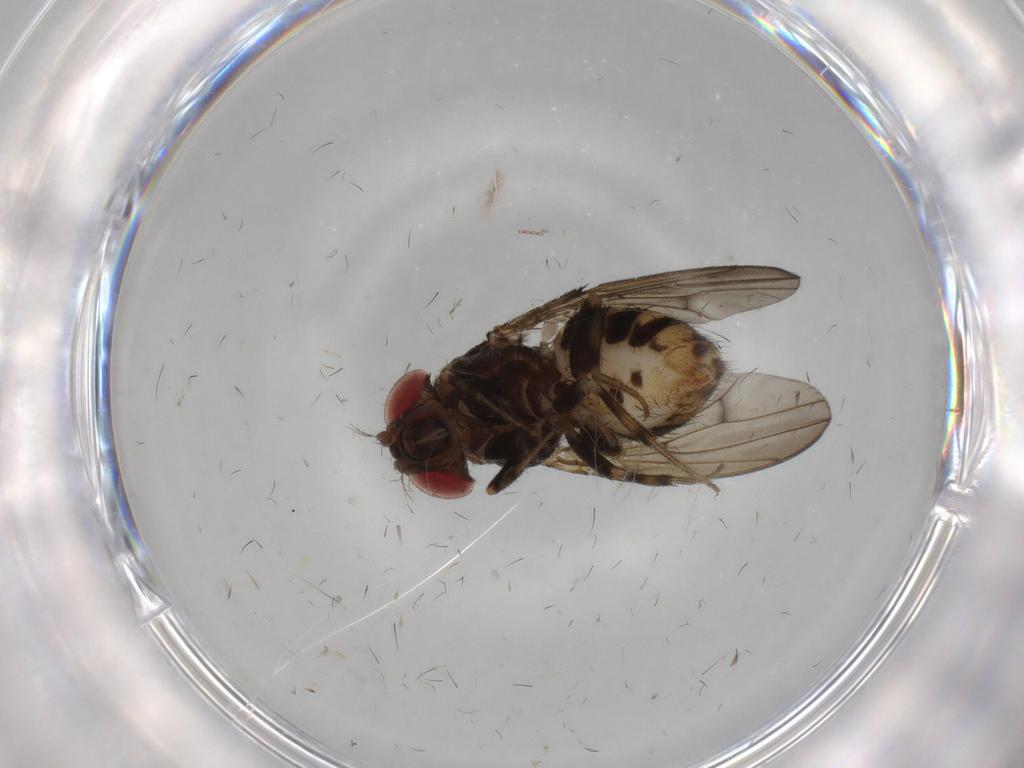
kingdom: Animalia
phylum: Arthropoda
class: Insecta
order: Diptera
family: Drosophilidae
